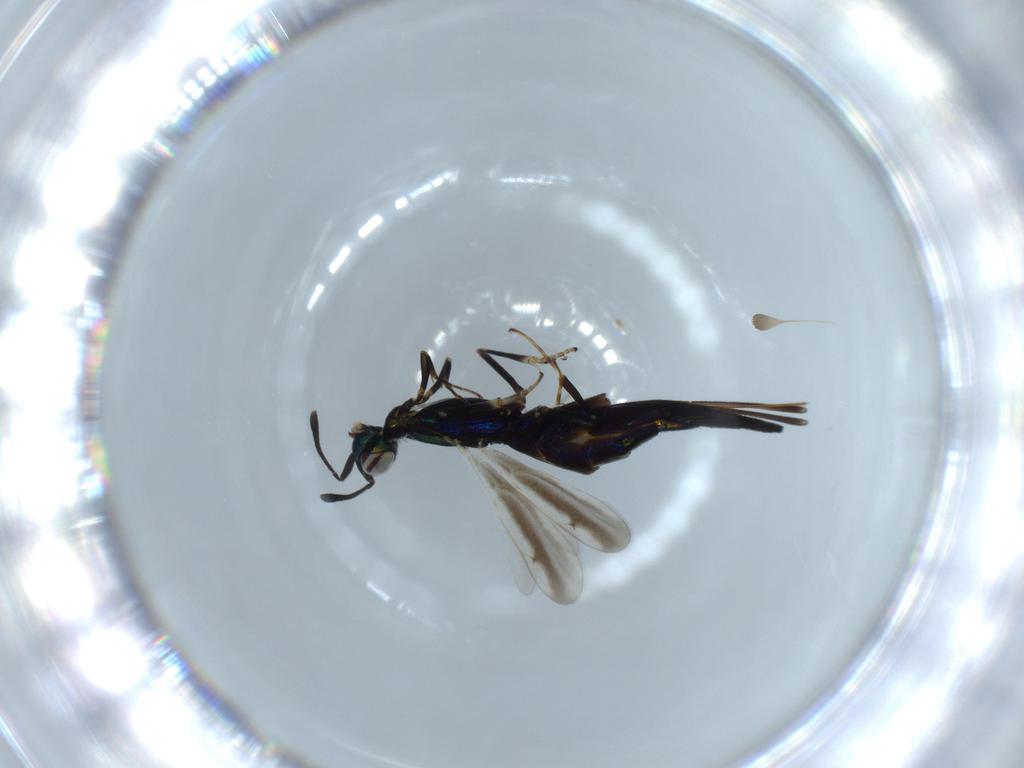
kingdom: Animalia
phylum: Arthropoda
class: Insecta
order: Hymenoptera
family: Eupelmidae
